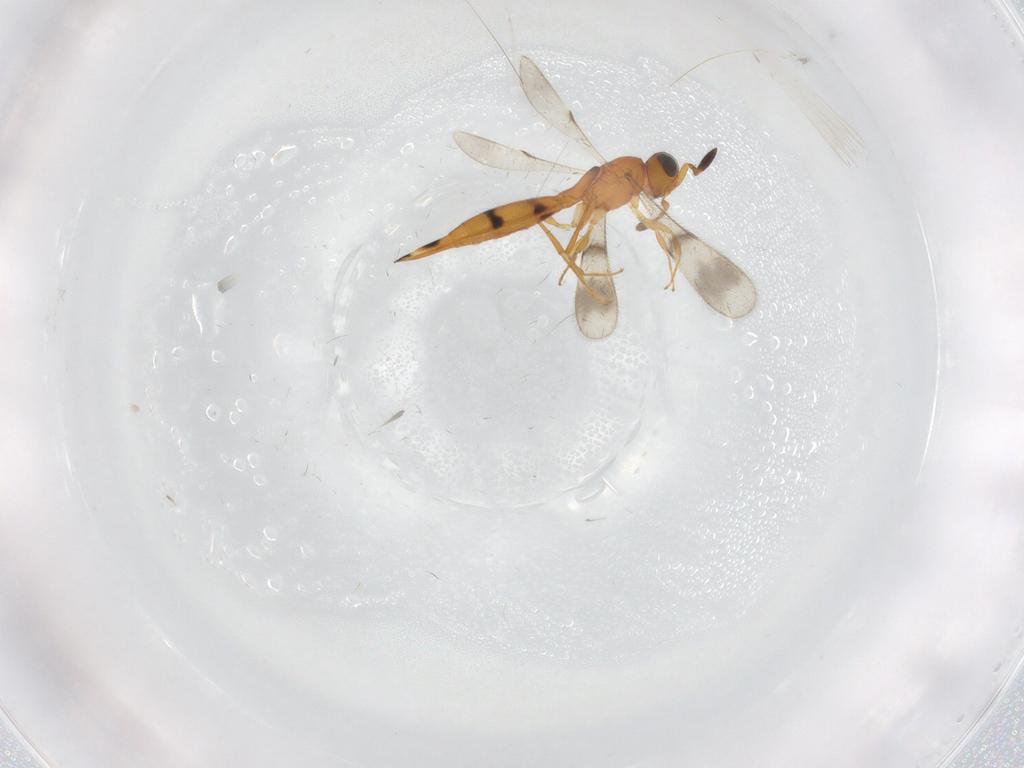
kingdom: Animalia
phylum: Arthropoda
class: Insecta
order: Hymenoptera
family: Scelionidae
